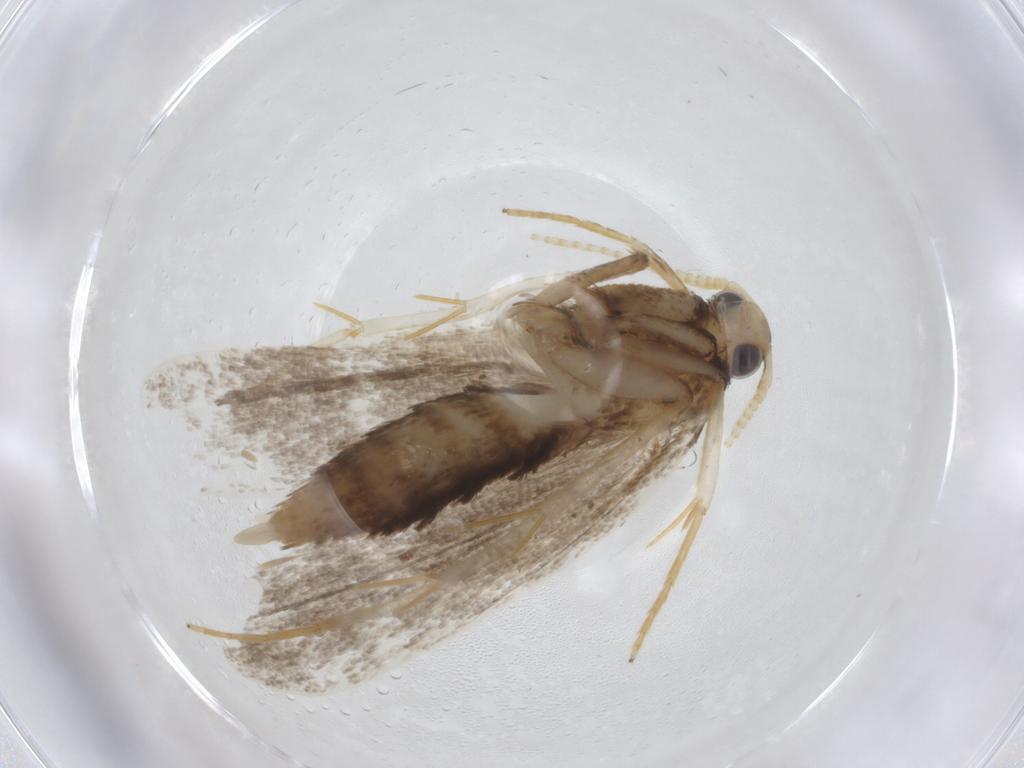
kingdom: Animalia
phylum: Arthropoda
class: Insecta
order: Lepidoptera
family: Lecithoceridae
